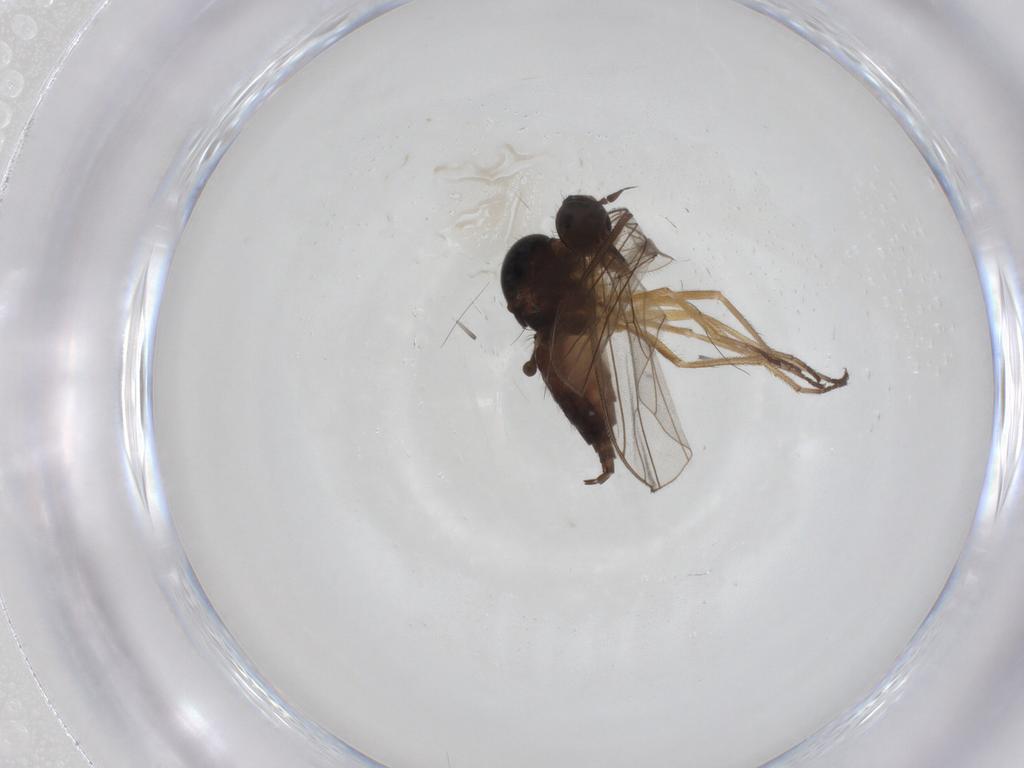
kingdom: Animalia
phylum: Arthropoda
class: Insecta
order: Diptera
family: Empididae
